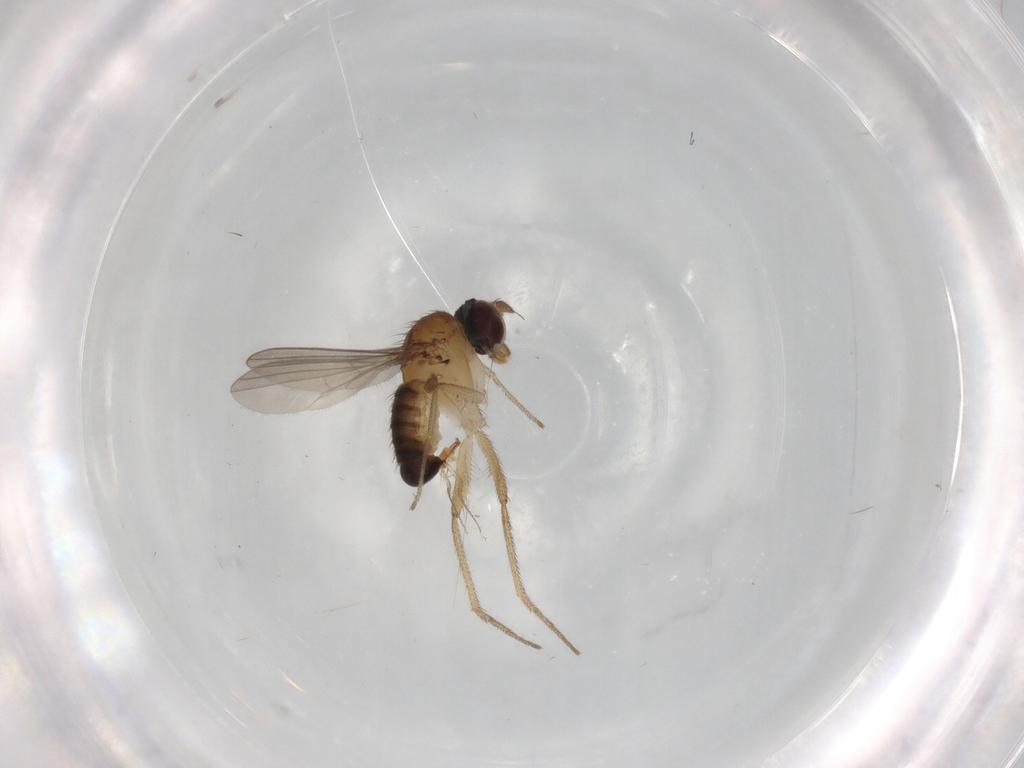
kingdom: Animalia
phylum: Arthropoda
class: Insecta
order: Diptera
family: Dolichopodidae
